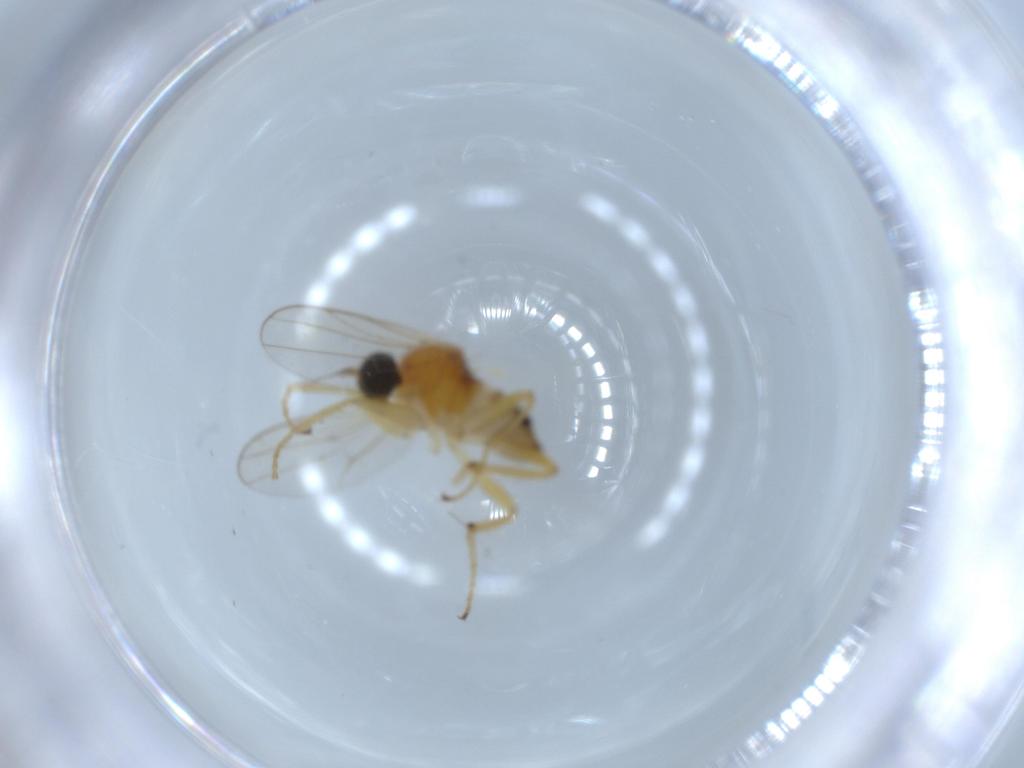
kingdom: Animalia
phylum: Arthropoda
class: Insecta
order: Diptera
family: Hybotidae
